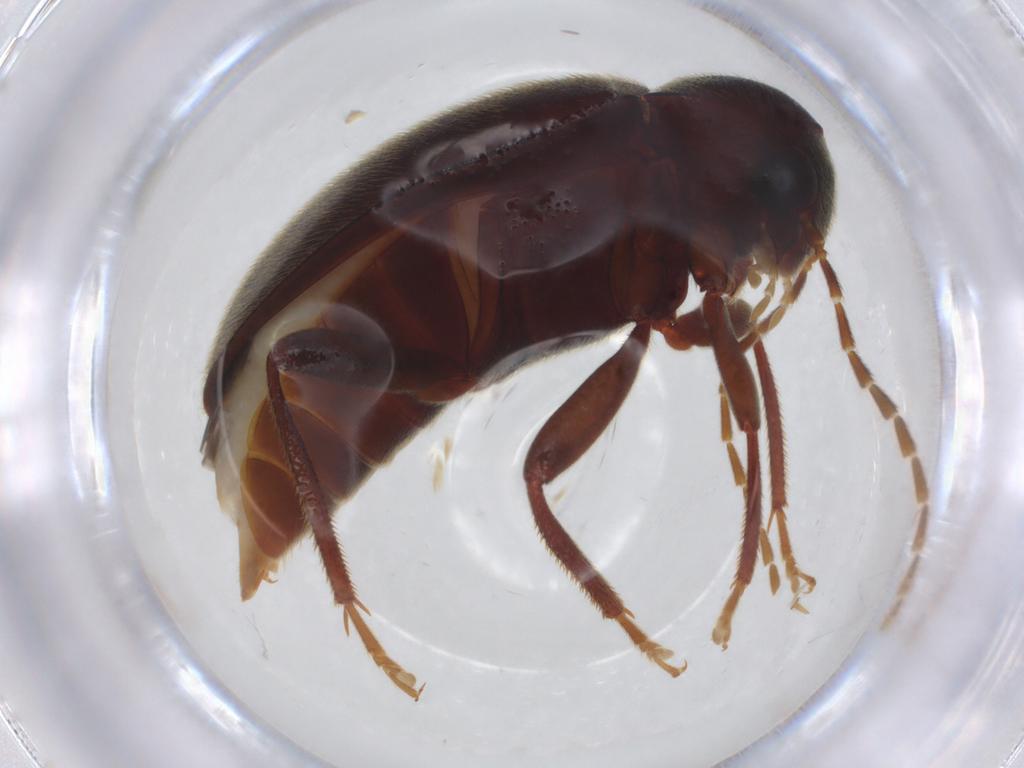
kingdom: Animalia
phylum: Arthropoda
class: Insecta
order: Coleoptera
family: Ptilodactylidae
